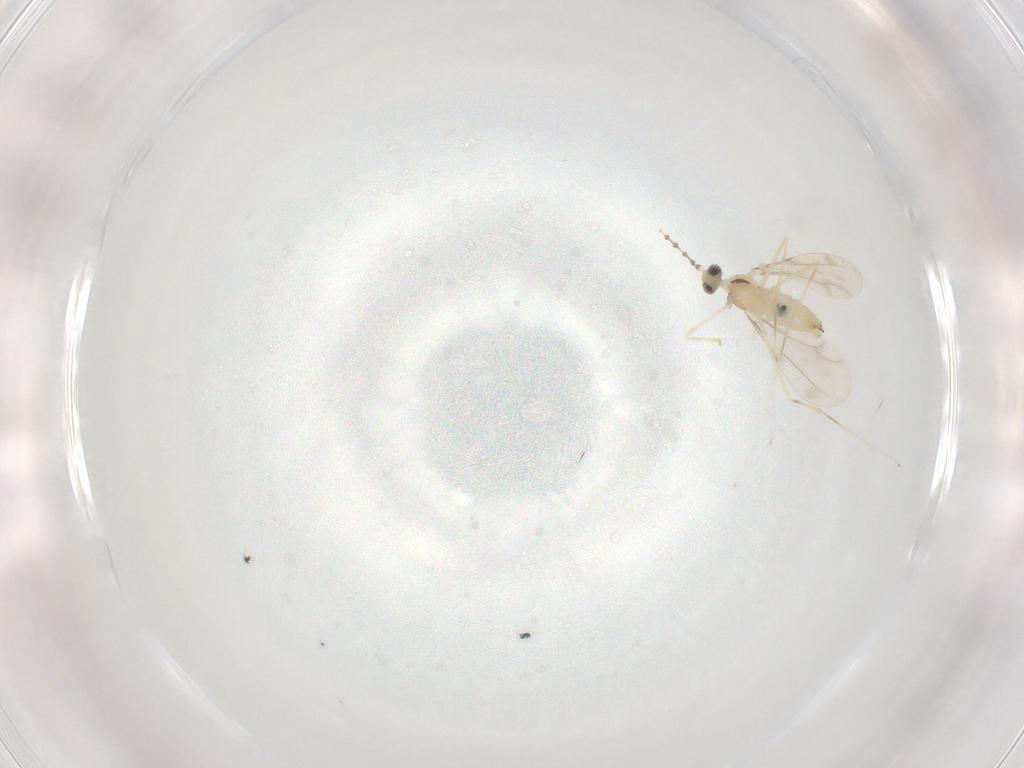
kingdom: Animalia
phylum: Arthropoda
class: Insecta
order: Diptera
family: Cecidomyiidae
